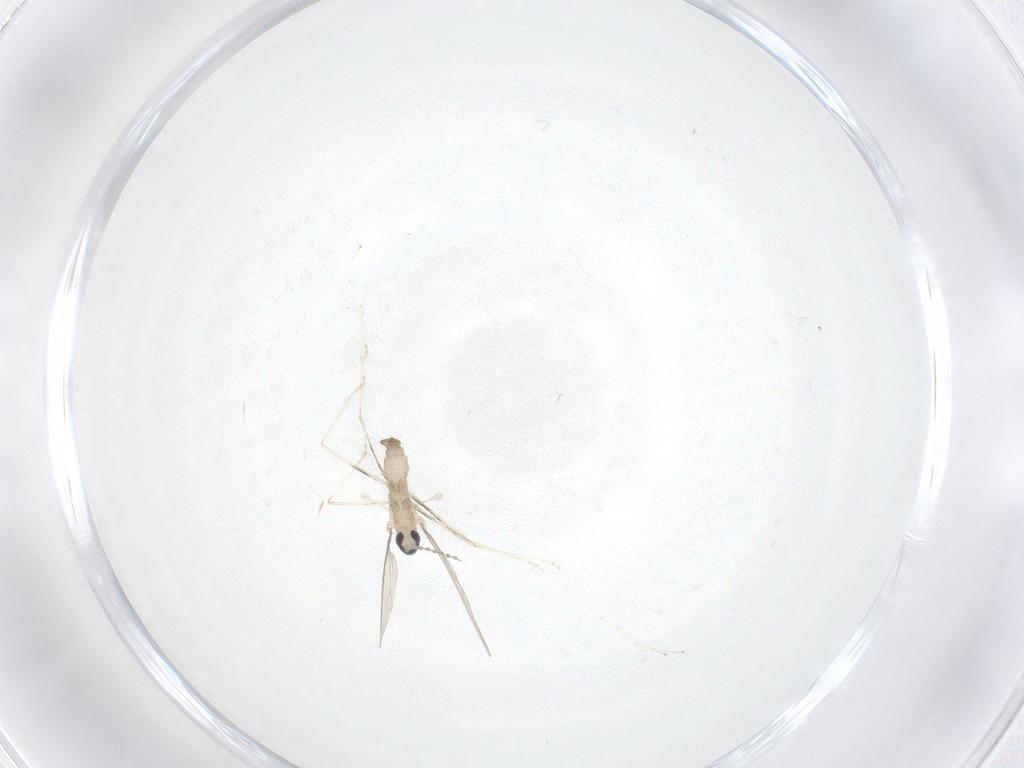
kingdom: Animalia
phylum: Arthropoda
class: Insecta
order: Diptera
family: Cecidomyiidae
